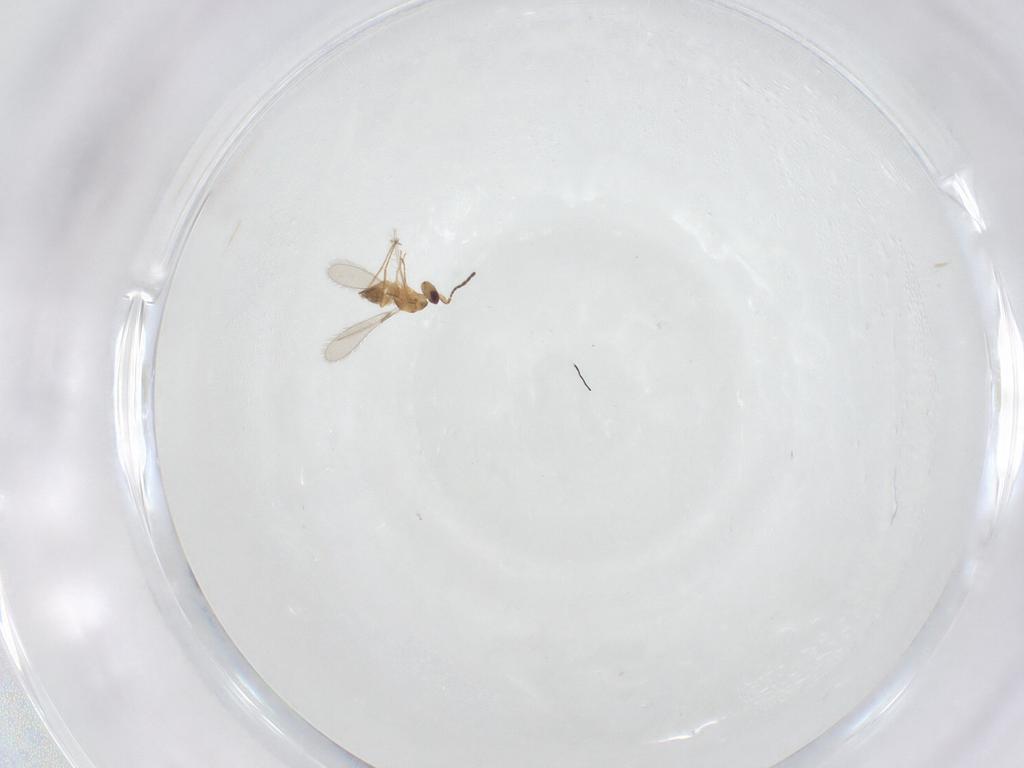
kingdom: Animalia
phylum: Arthropoda
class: Insecta
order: Hymenoptera
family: Mymaridae
